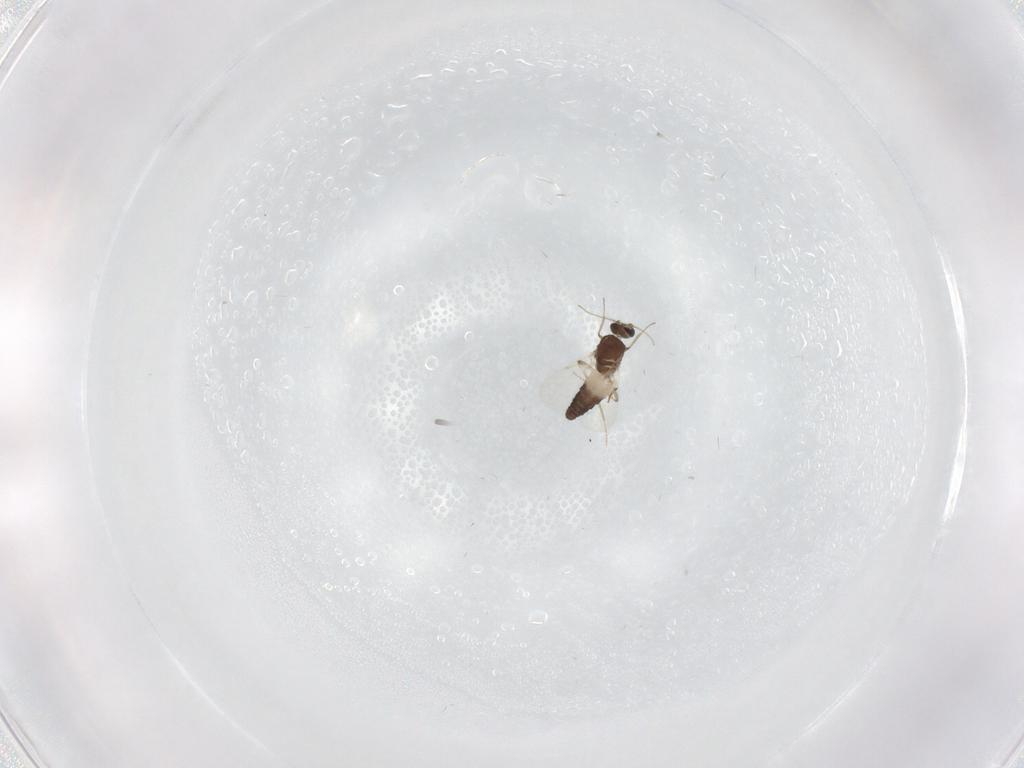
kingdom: Animalia
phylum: Arthropoda
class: Insecta
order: Diptera
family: Ceratopogonidae
